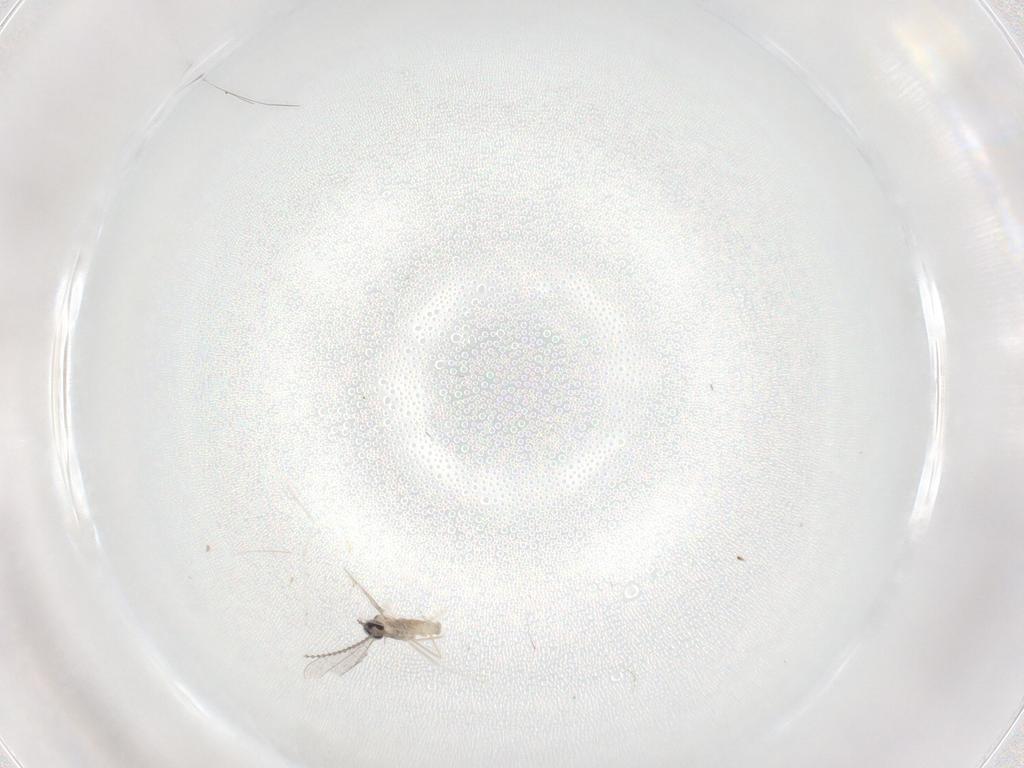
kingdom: Animalia
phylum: Arthropoda
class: Insecta
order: Diptera
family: Cecidomyiidae
